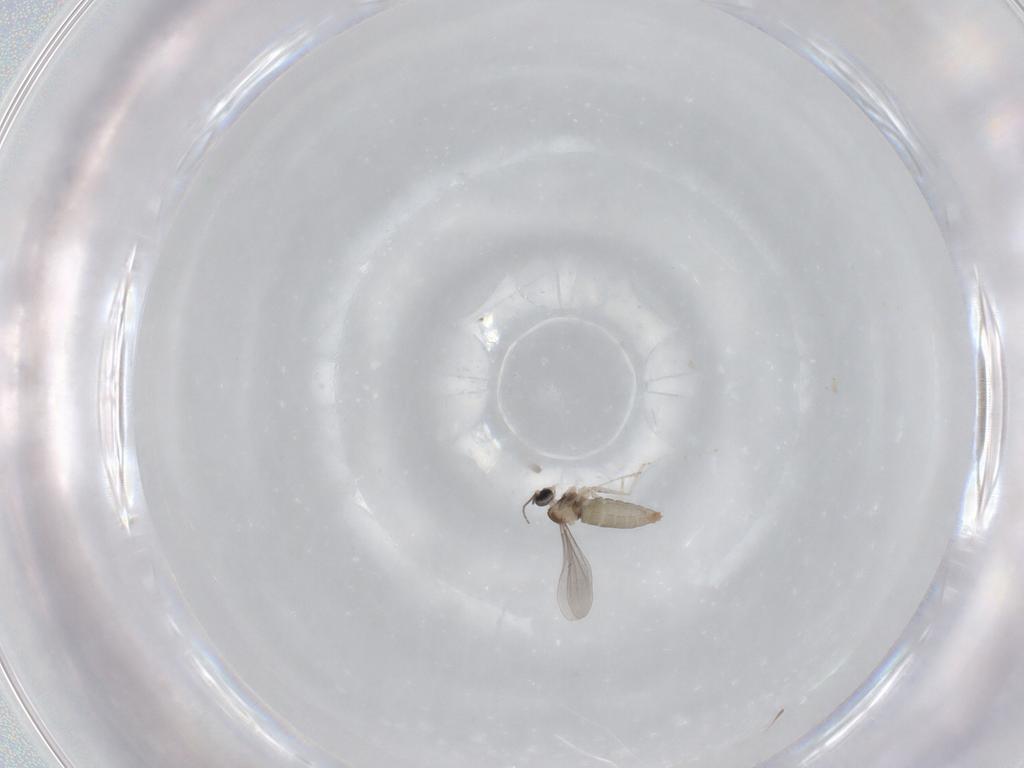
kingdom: Animalia
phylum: Arthropoda
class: Insecta
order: Diptera
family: Cecidomyiidae
